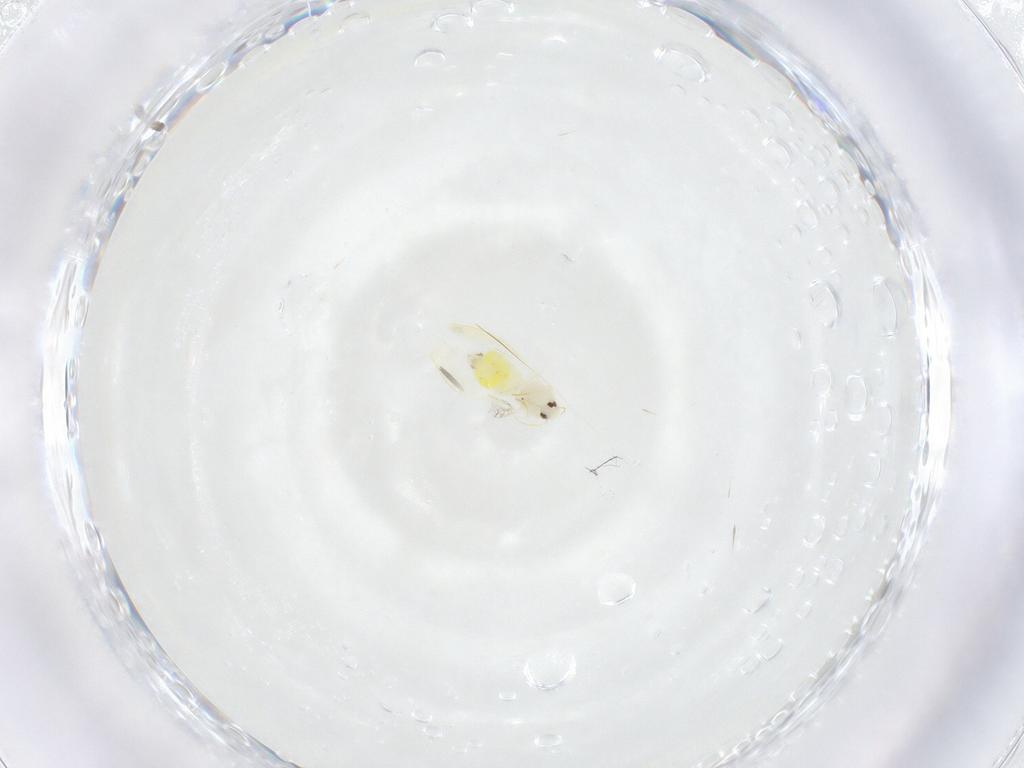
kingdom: Animalia
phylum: Arthropoda
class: Insecta
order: Hemiptera
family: Aleyrodidae
